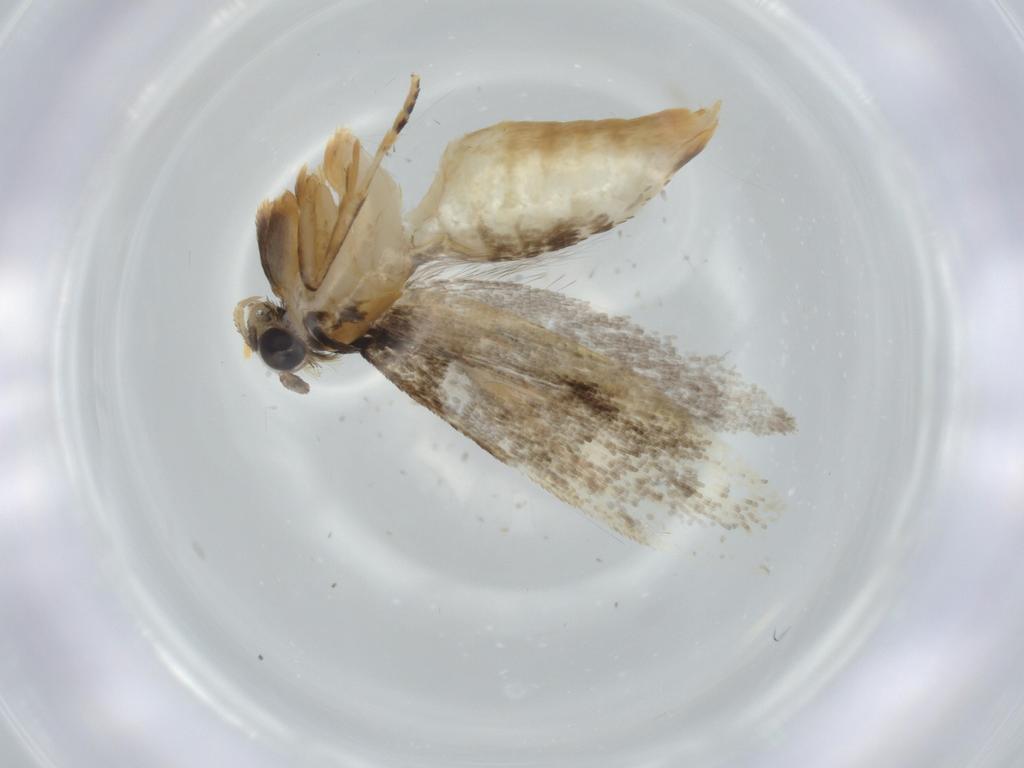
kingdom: Animalia
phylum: Arthropoda
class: Insecta
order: Lepidoptera
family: Tineidae
